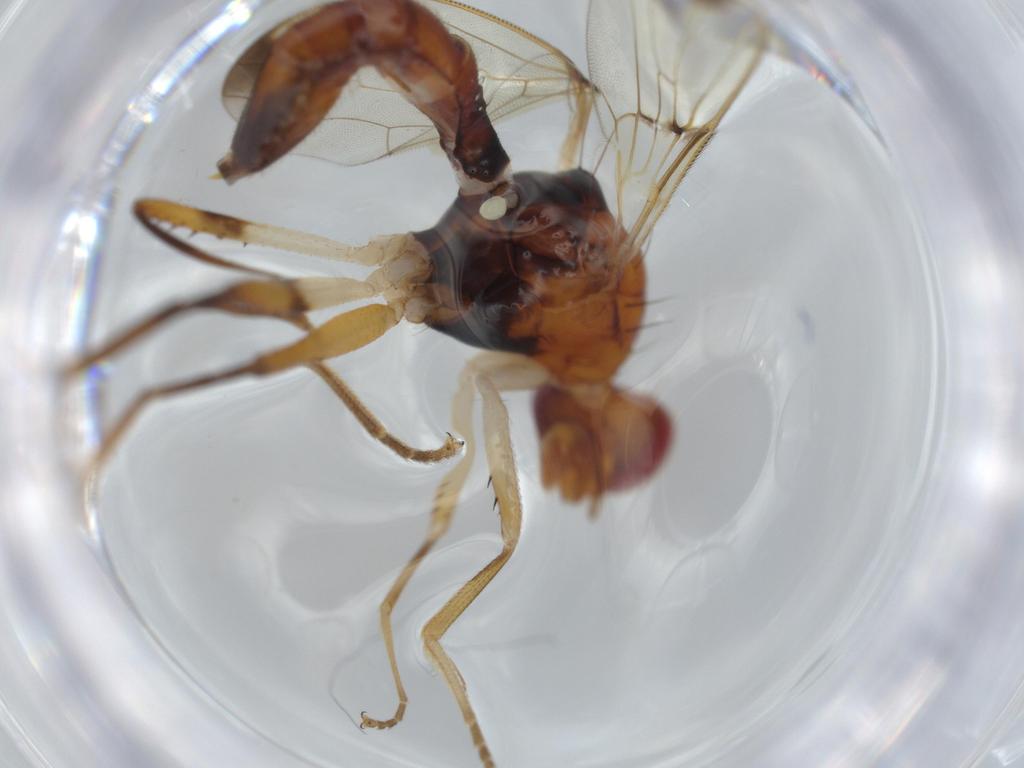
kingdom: Animalia
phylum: Arthropoda
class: Insecta
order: Diptera
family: Richardiidae
